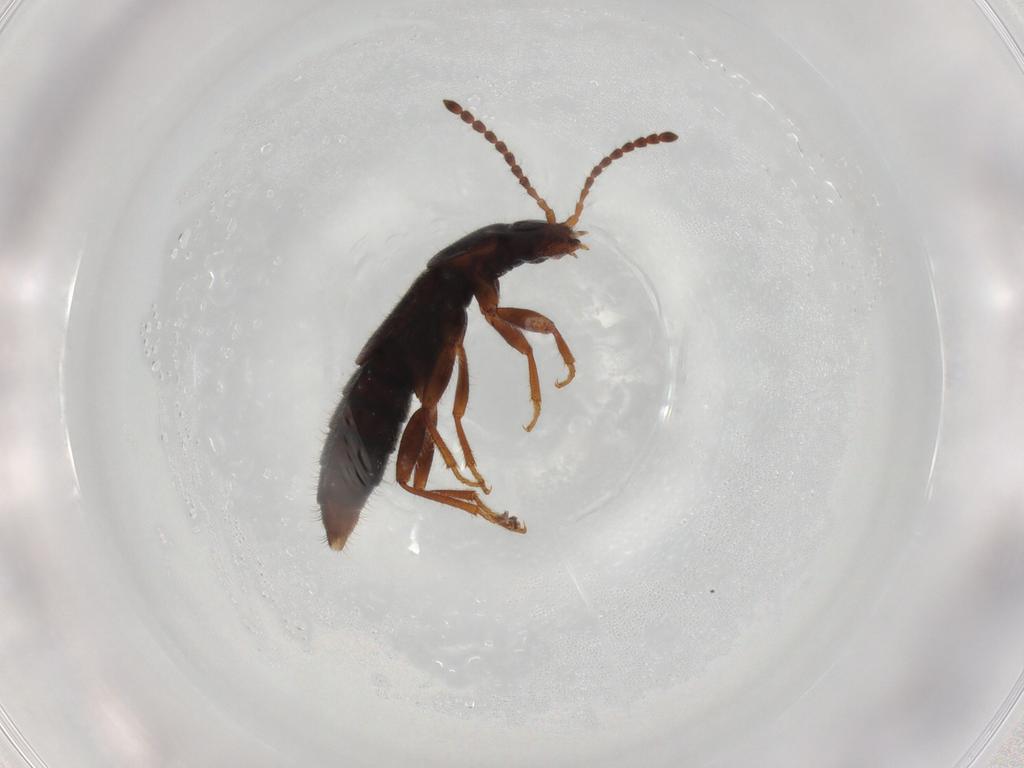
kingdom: Animalia
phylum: Arthropoda
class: Insecta
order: Coleoptera
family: Staphylinidae
